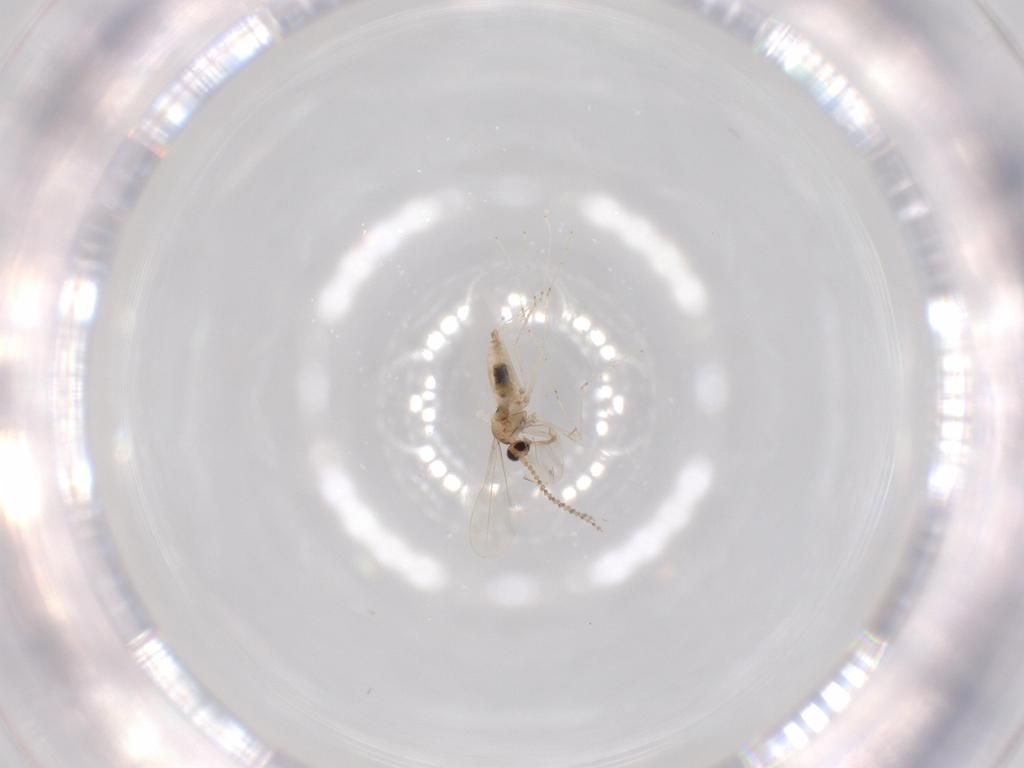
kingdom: Animalia
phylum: Arthropoda
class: Insecta
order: Diptera
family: Cecidomyiidae
